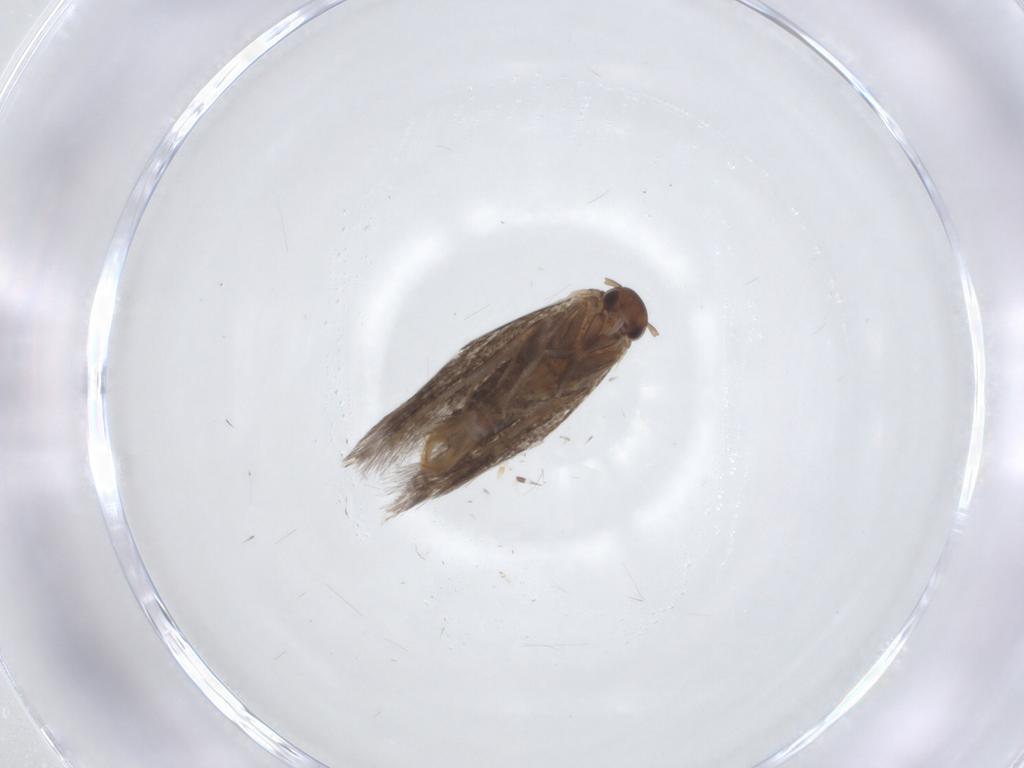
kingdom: Animalia
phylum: Arthropoda
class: Insecta
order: Lepidoptera
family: Elachistidae
